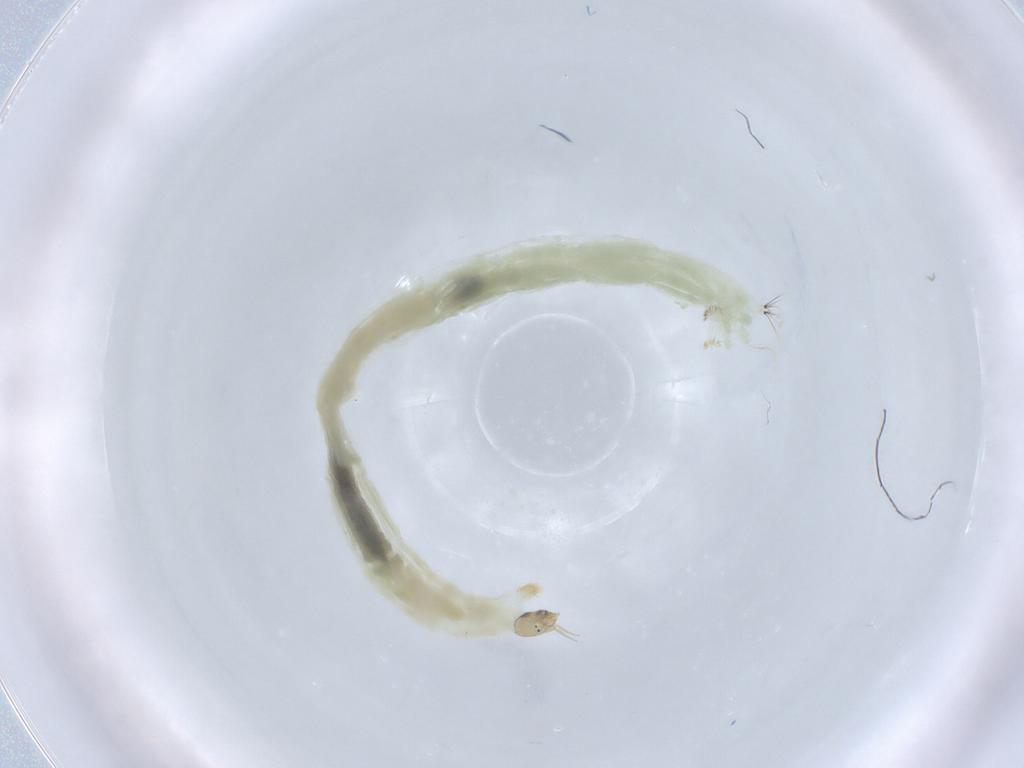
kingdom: Animalia
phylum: Arthropoda
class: Insecta
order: Diptera
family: Chironomidae
